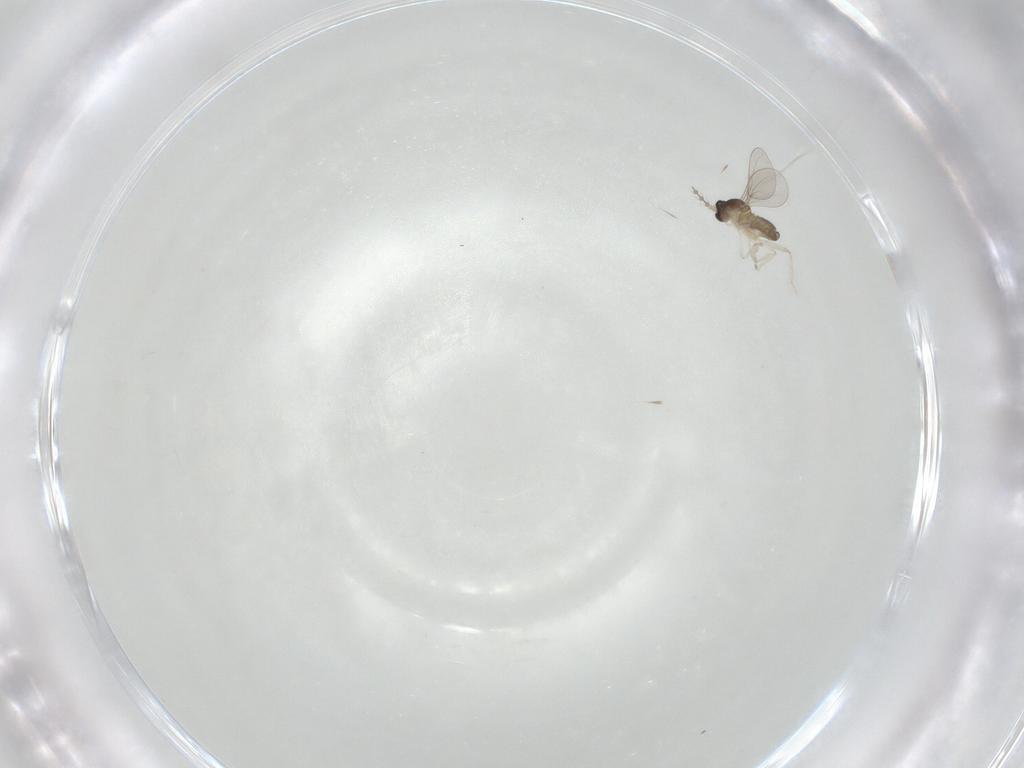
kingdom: Animalia
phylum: Arthropoda
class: Insecta
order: Diptera
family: Cecidomyiidae
